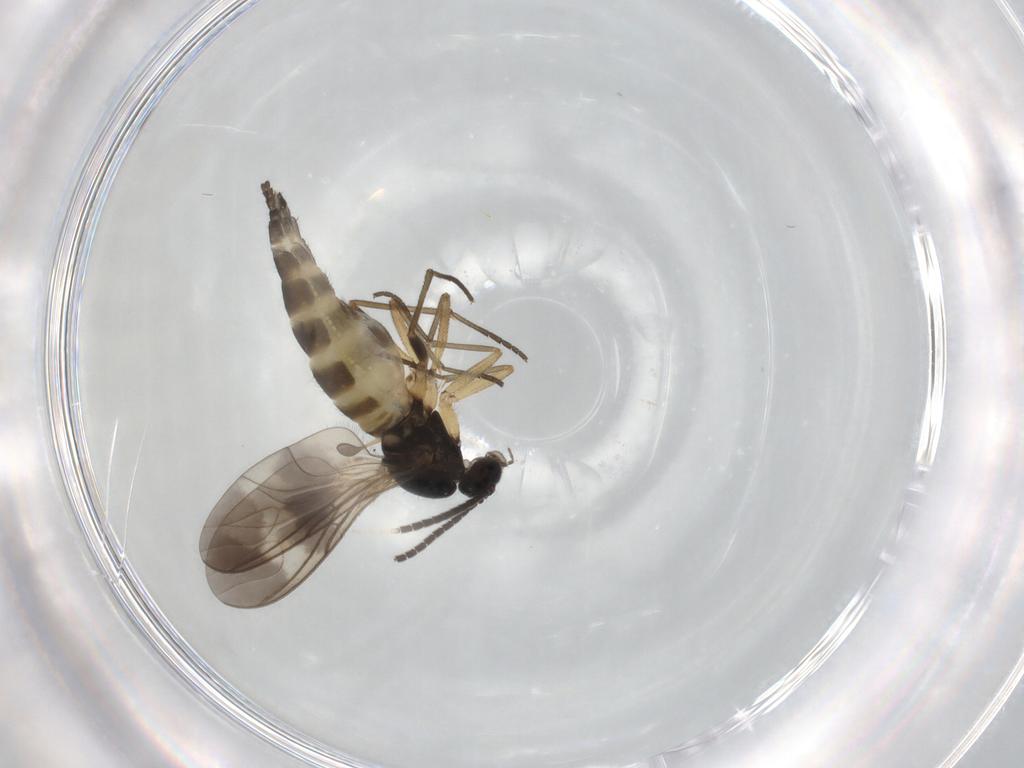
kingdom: Animalia
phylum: Arthropoda
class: Insecta
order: Diptera
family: Sciaridae
